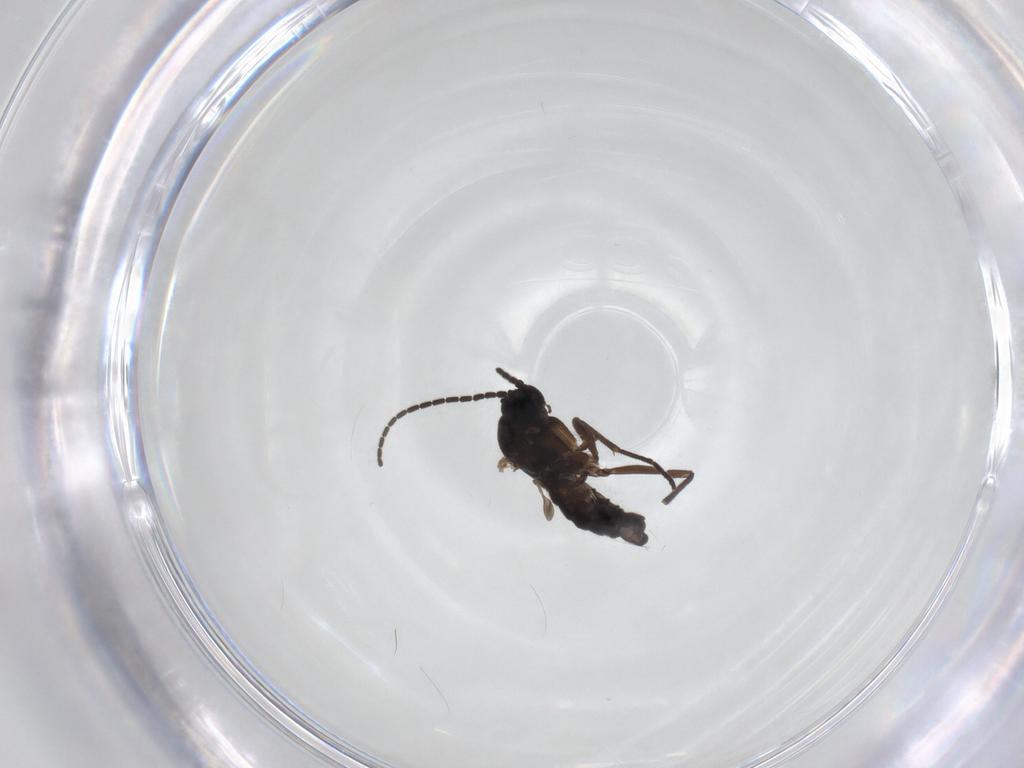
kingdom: Animalia
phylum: Arthropoda
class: Insecta
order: Diptera
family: Sciaridae
